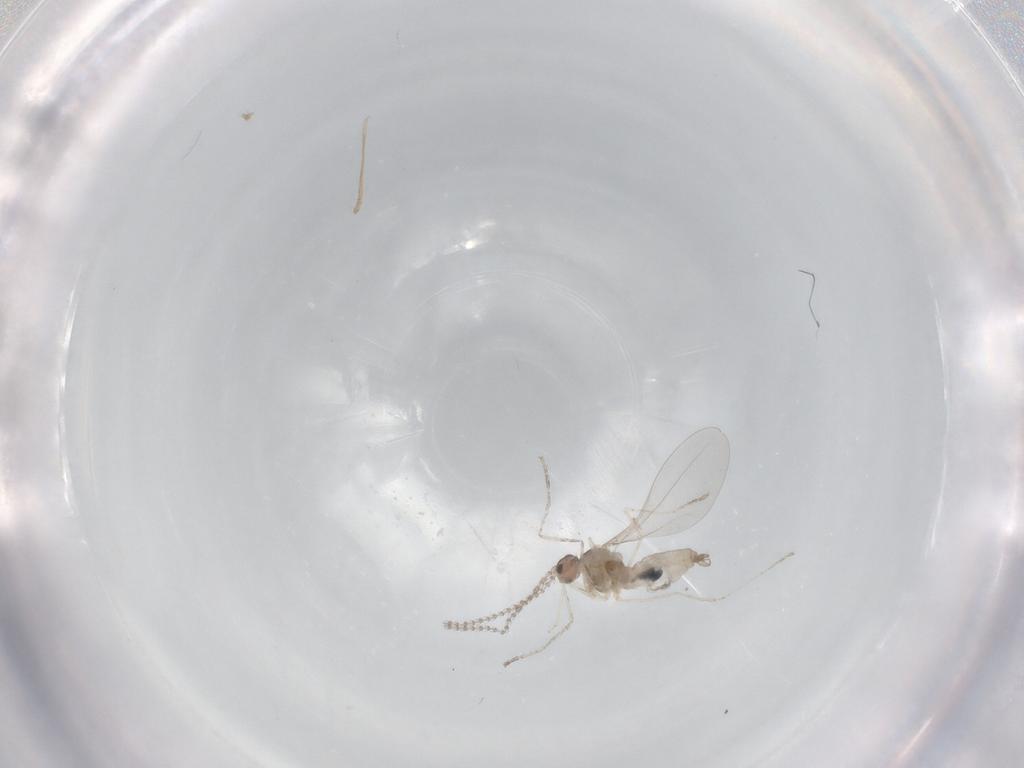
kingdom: Animalia
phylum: Arthropoda
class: Insecta
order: Diptera
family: Cecidomyiidae
